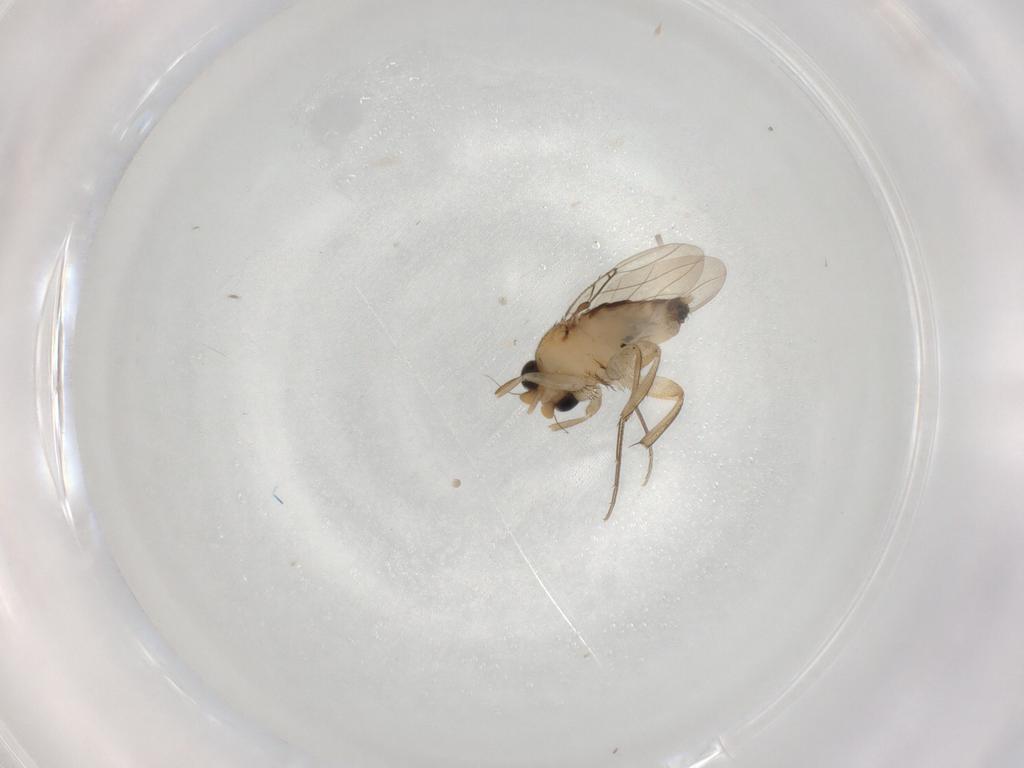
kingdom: Animalia
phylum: Arthropoda
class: Insecta
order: Diptera
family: Phoridae
